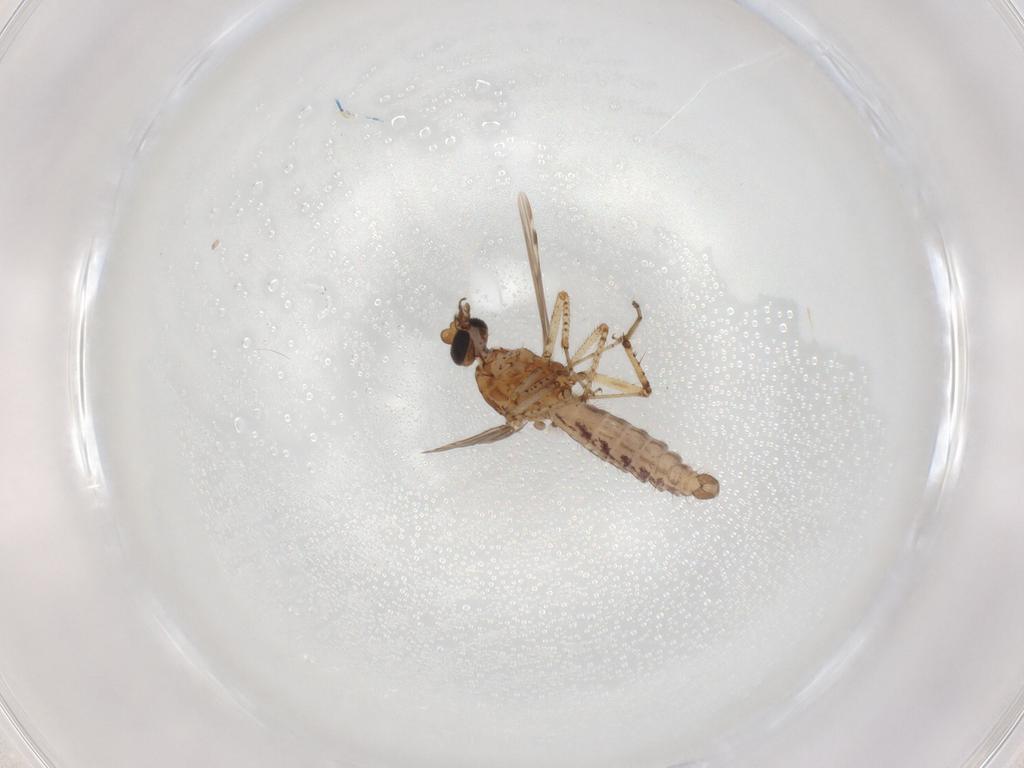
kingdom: Animalia
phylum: Arthropoda
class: Insecta
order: Diptera
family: Ceratopogonidae
